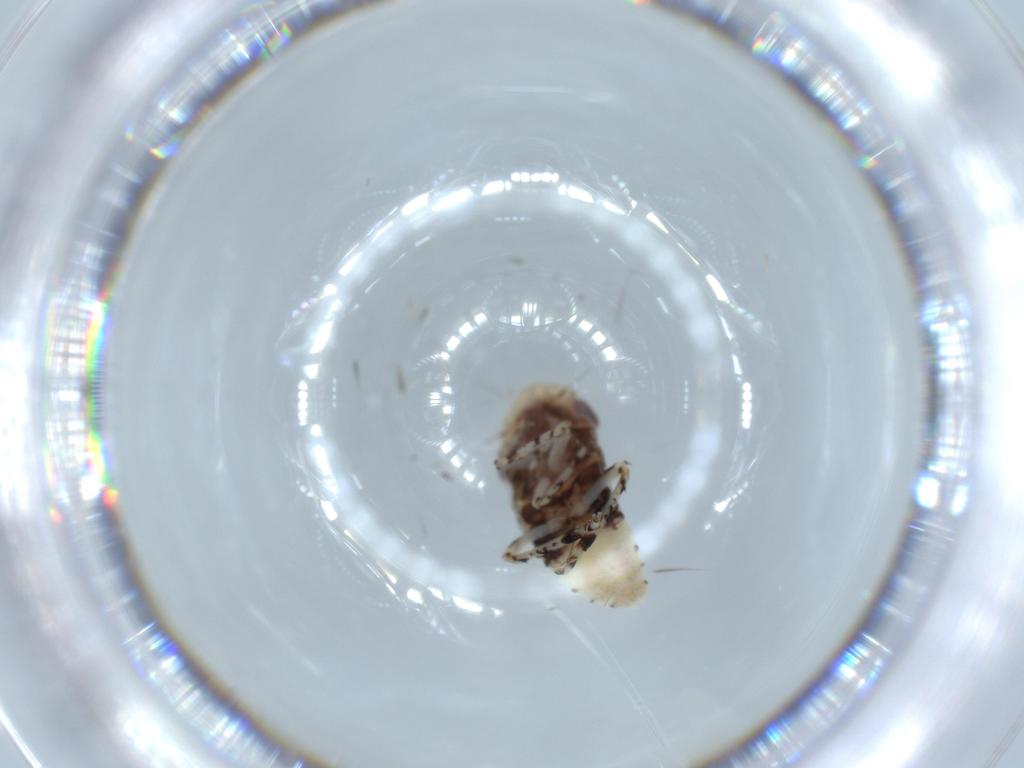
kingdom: Animalia
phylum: Arthropoda
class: Insecta
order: Hemiptera
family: Cicadellidae
